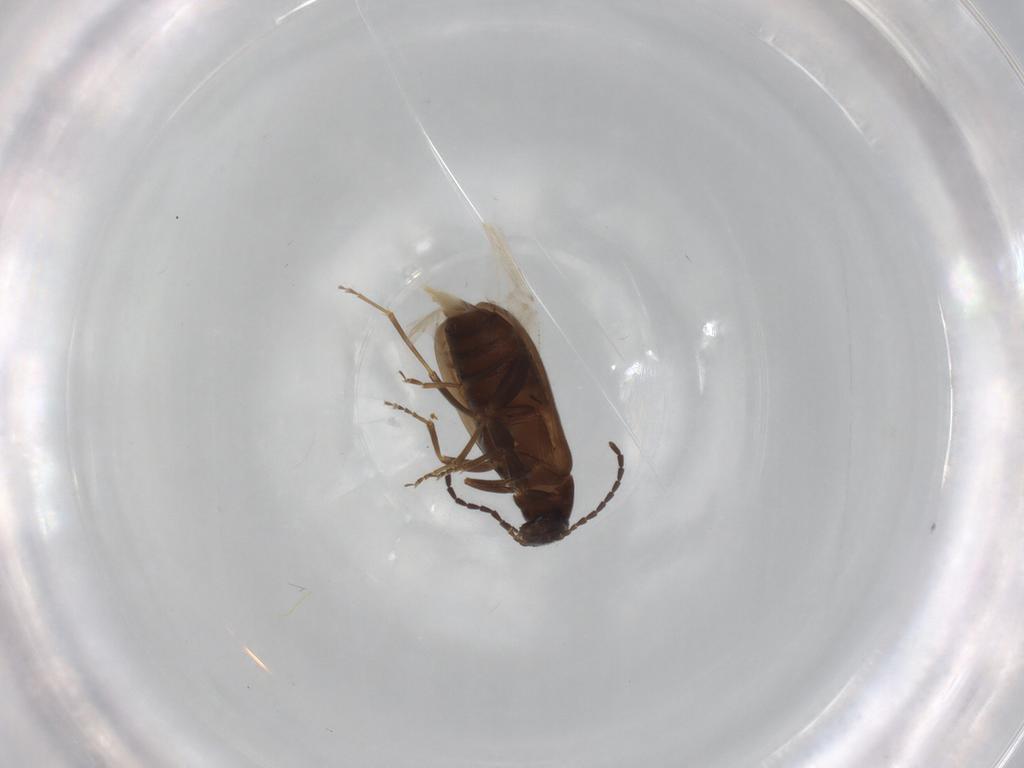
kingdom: Animalia
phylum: Arthropoda
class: Insecta
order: Coleoptera
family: Scraptiidae
